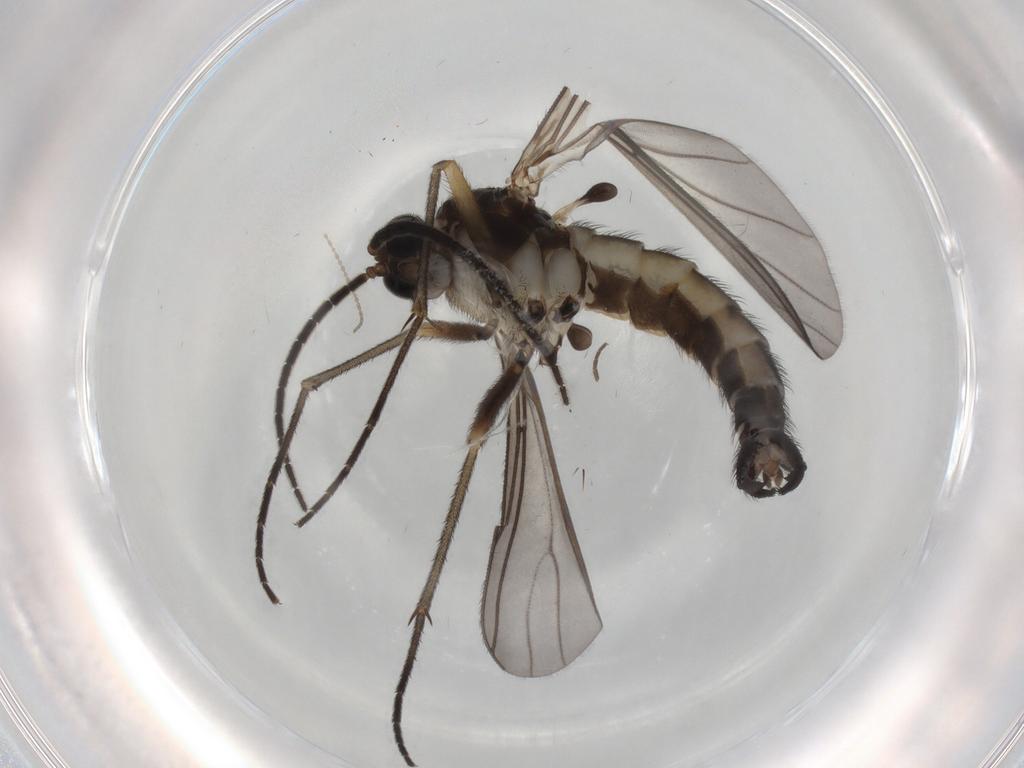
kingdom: Animalia
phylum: Arthropoda
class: Insecta
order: Diptera
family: Sciaridae
